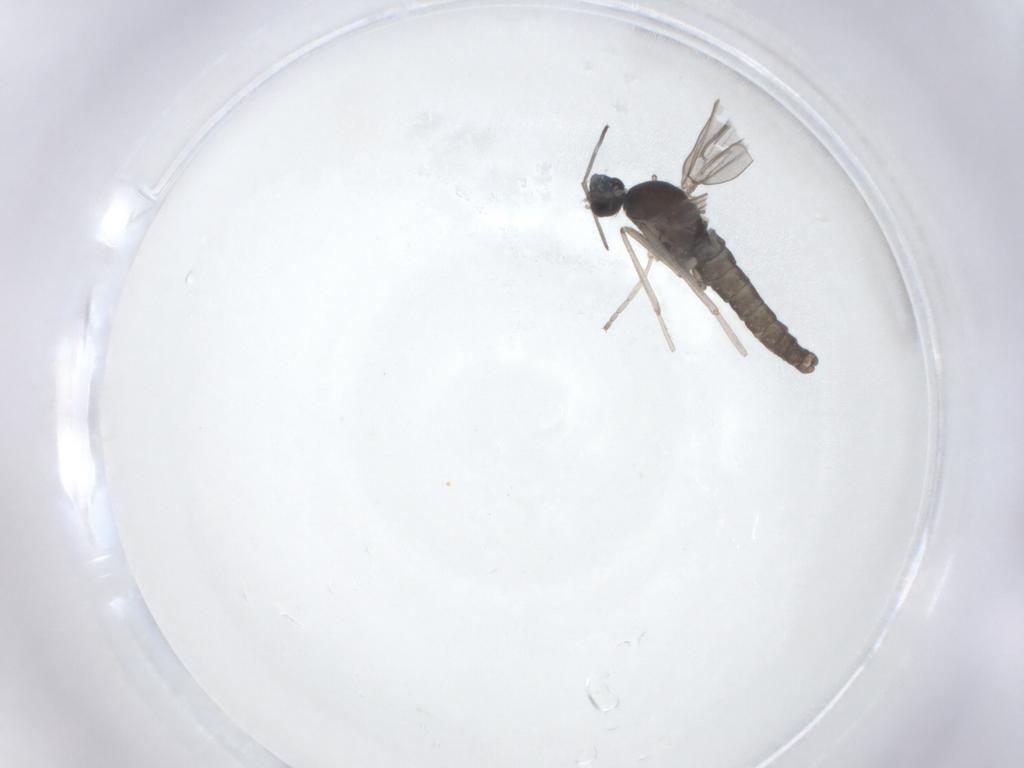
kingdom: Animalia
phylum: Arthropoda
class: Insecta
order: Diptera
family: Cecidomyiidae
